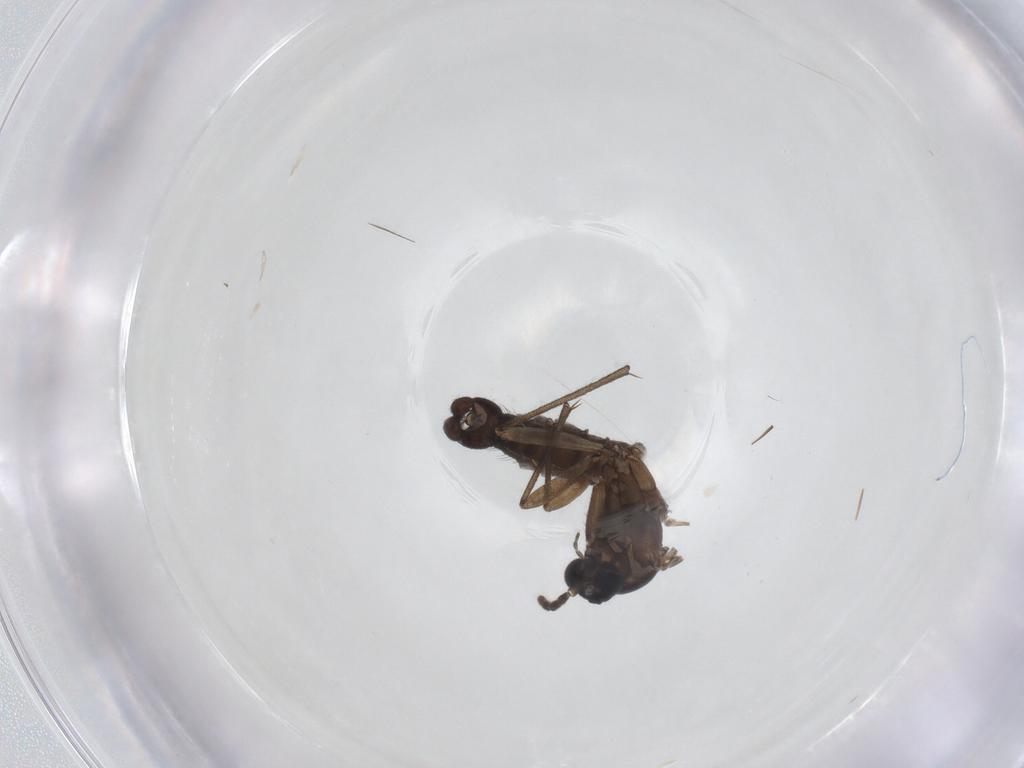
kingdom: Animalia
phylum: Arthropoda
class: Insecta
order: Diptera
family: Sciaridae
